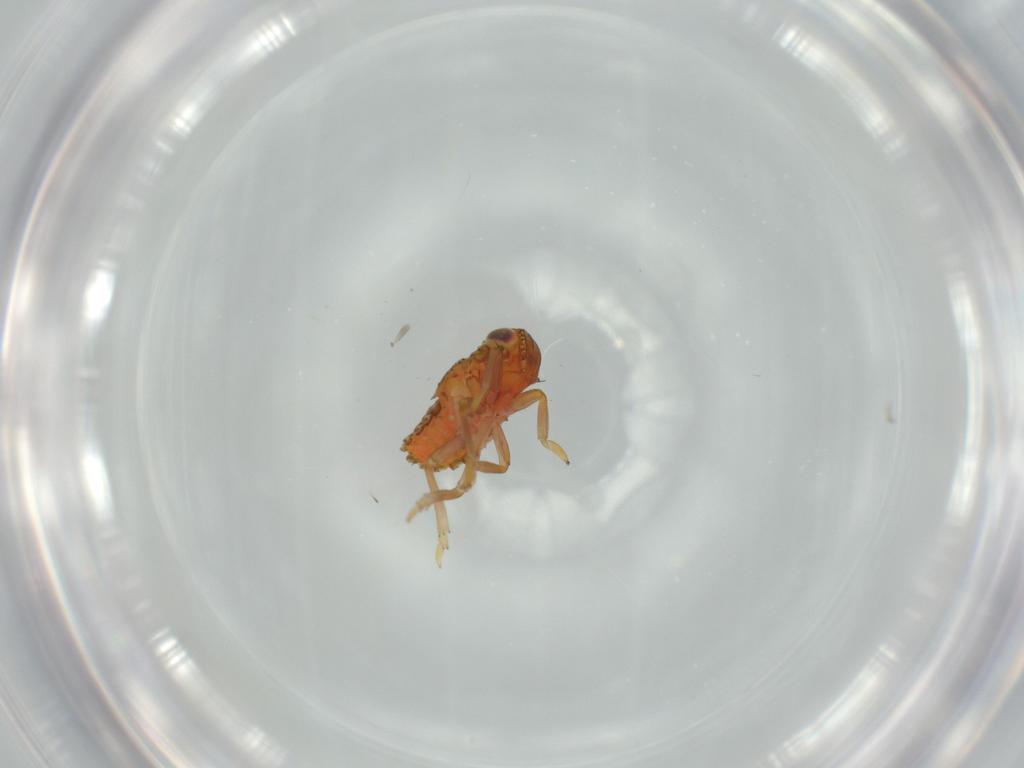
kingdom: Animalia
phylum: Arthropoda
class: Insecta
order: Hemiptera
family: Issidae
